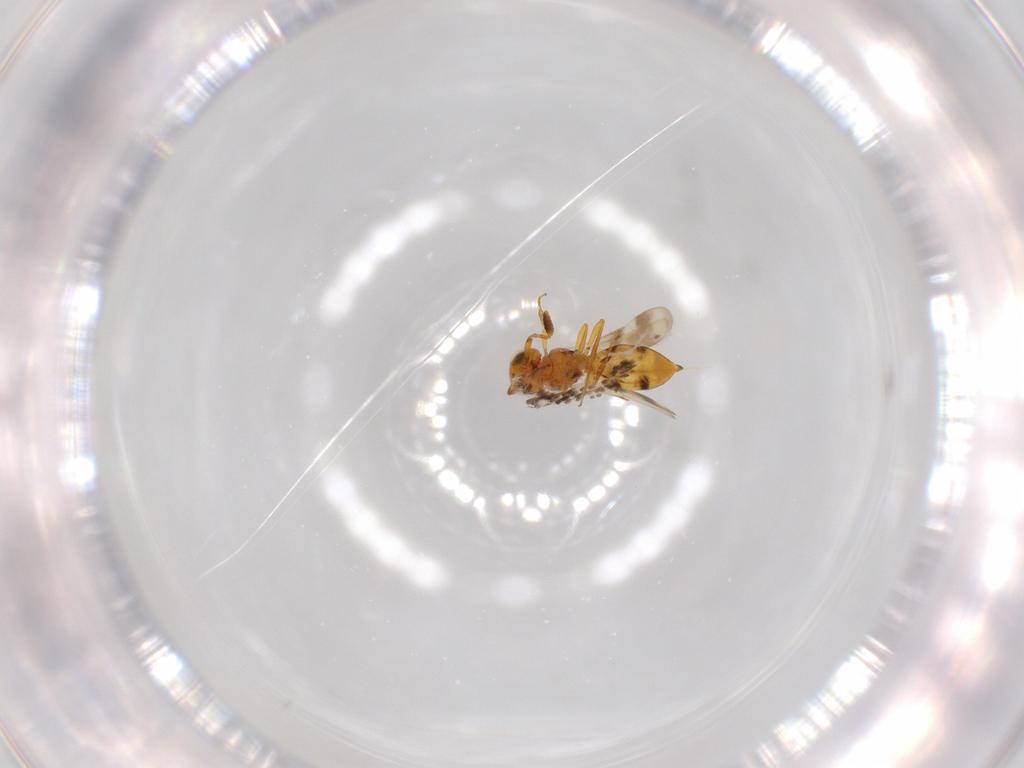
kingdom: Animalia
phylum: Arthropoda
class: Insecta
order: Hymenoptera
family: Scelionidae
